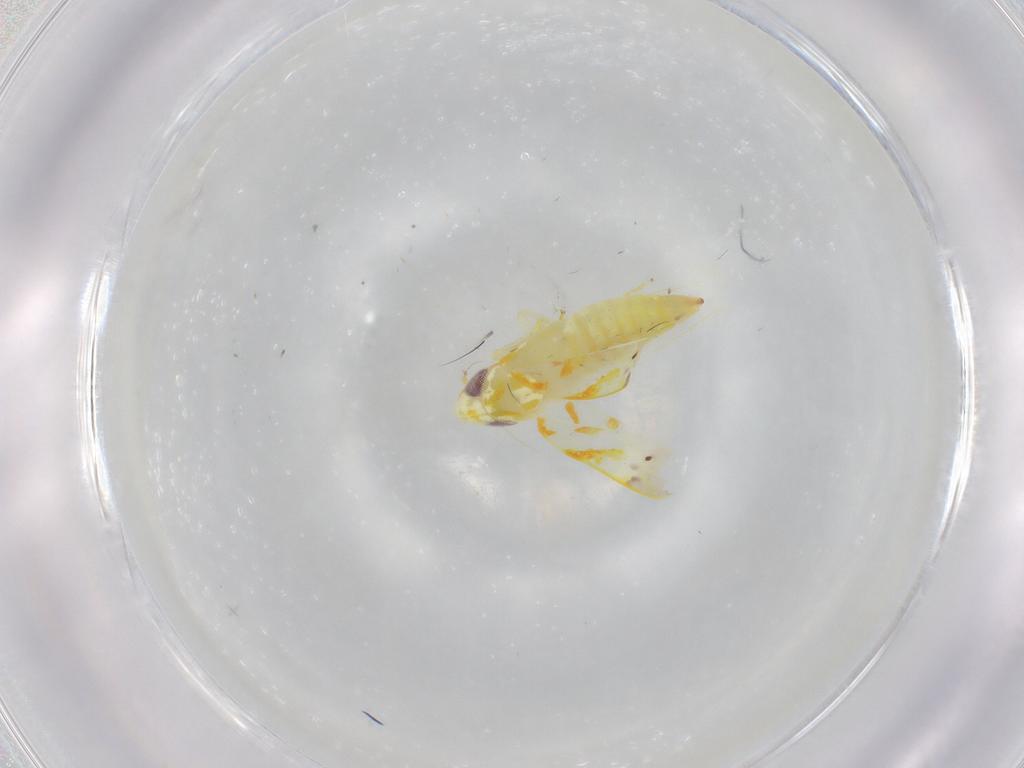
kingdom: Animalia
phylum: Arthropoda
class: Insecta
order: Hemiptera
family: Cicadellidae
